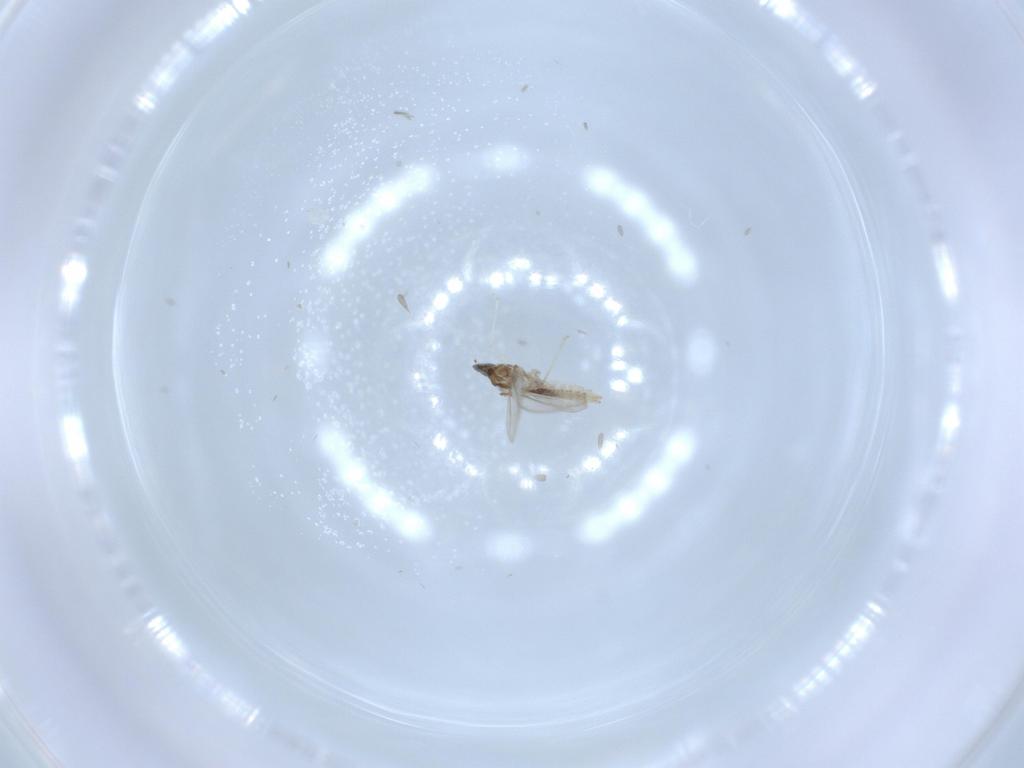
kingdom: Animalia
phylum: Arthropoda
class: Insecta
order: Diptera
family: Cecidomyiidae
